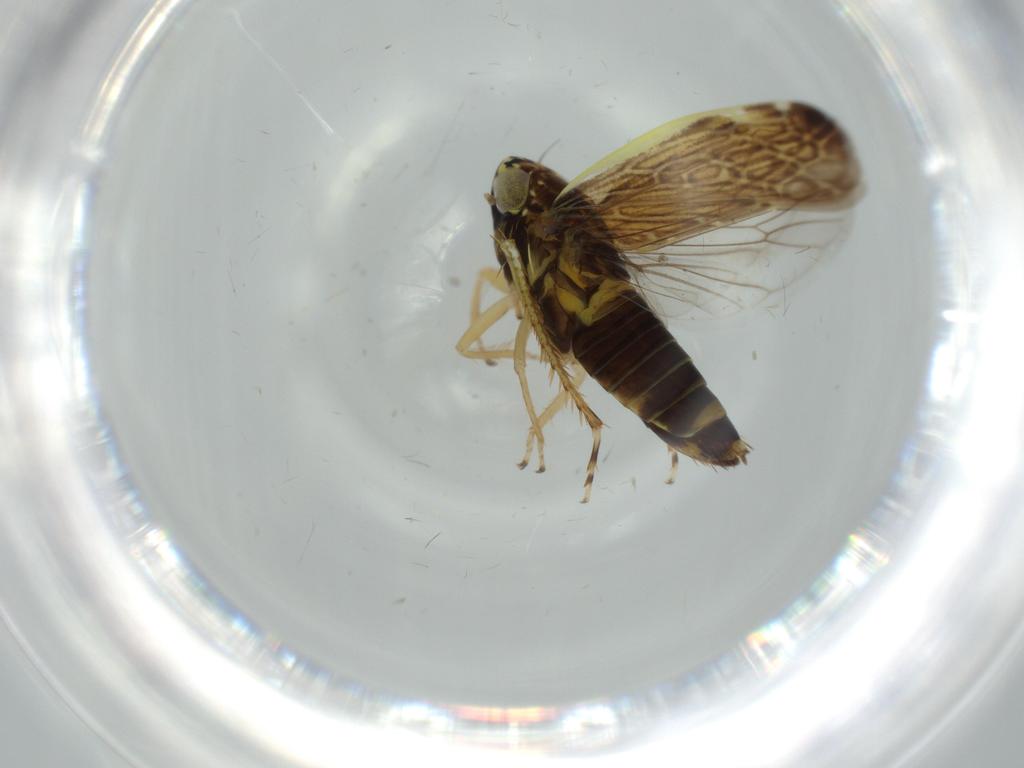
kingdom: Animalia
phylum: Arthropoda
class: Insecta
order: Hemiptera
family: Cicadellidae
